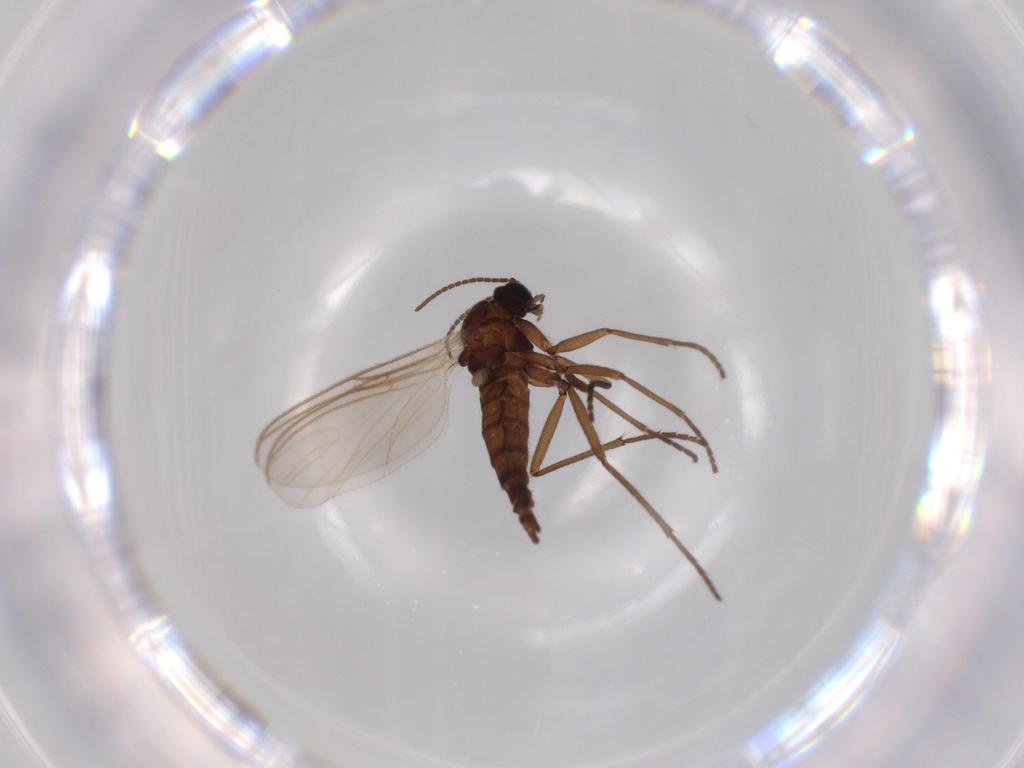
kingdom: Animalia
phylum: Arthropoda
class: Insecta
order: Diptera
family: Sciaridae
